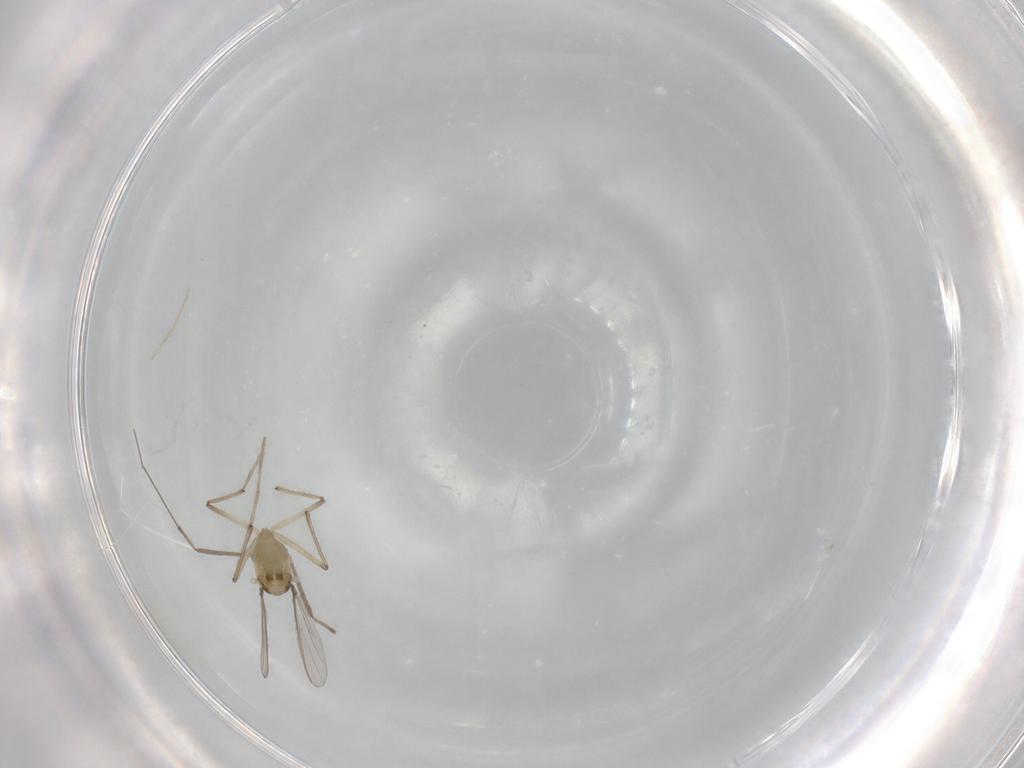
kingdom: Animalia
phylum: Arthropoda
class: Insecta
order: Diptera
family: Chironomidae
